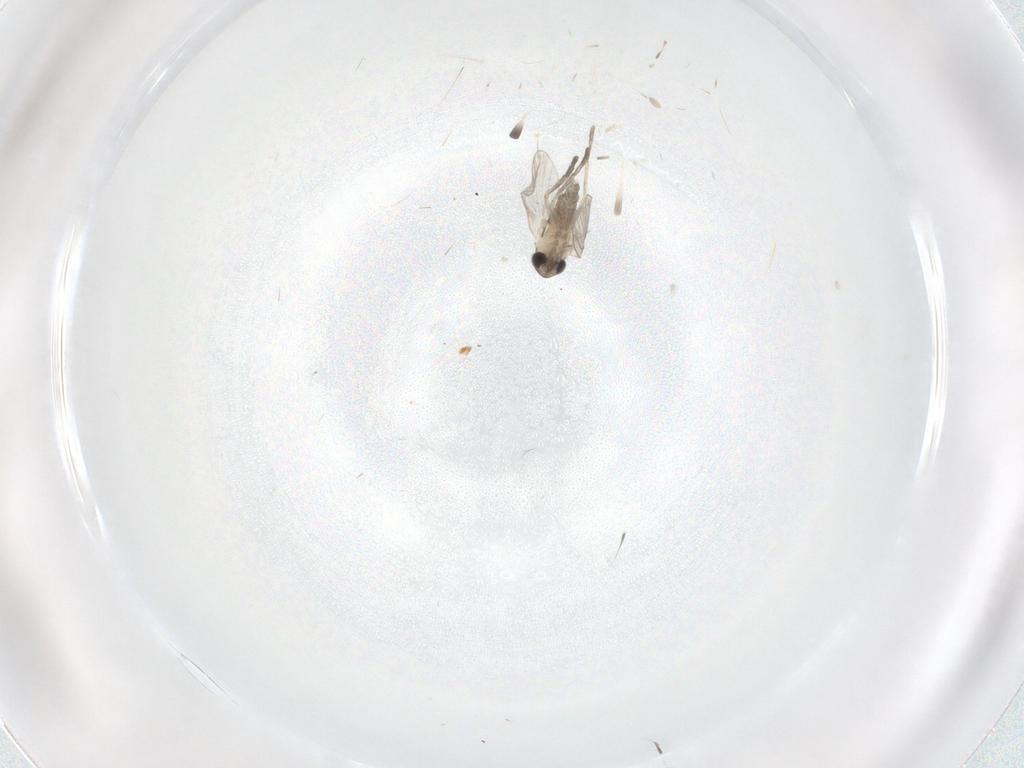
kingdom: Animalia
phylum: Arthropoda
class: Insecta
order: Diptera
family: Psychodidae
